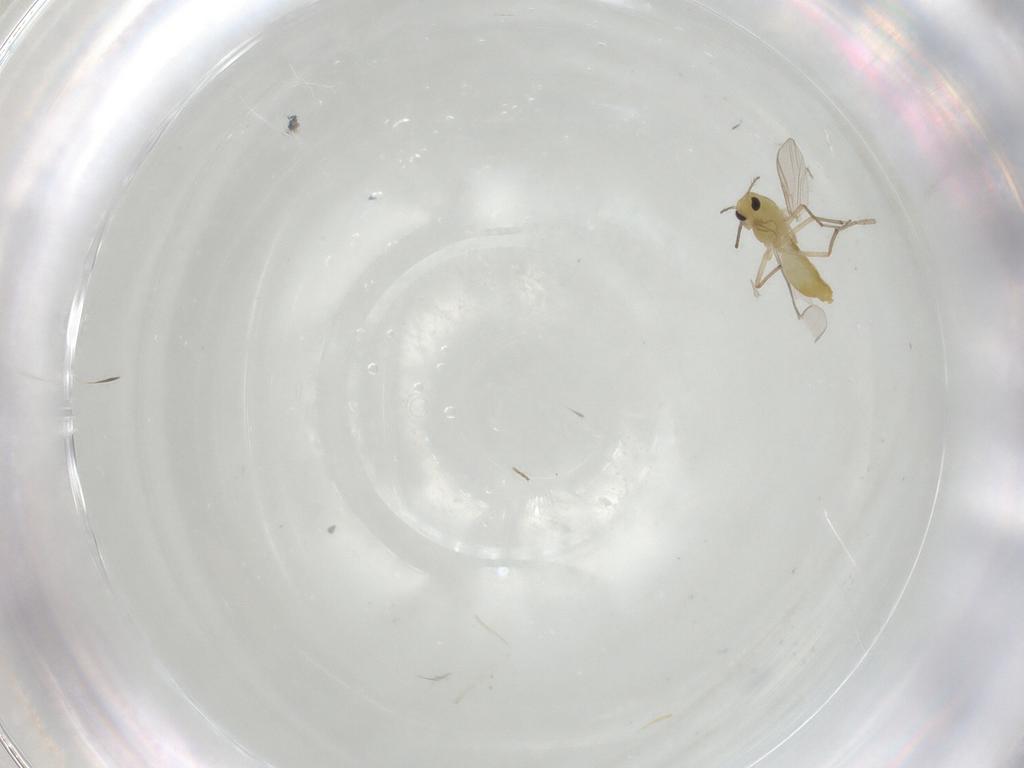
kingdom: Animalia
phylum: Arthropoda
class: Insecta
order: Diptera
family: Chironomidae
